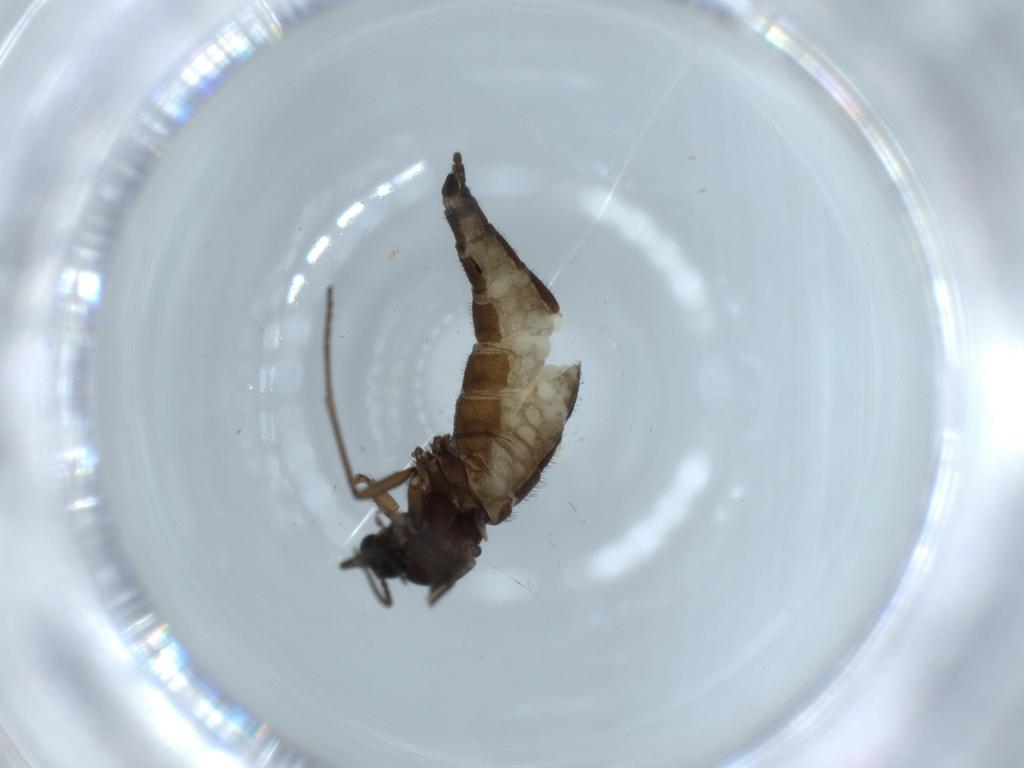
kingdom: Animalia
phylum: Arthropoda
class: Insecta
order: Diptera
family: Sciaridae
